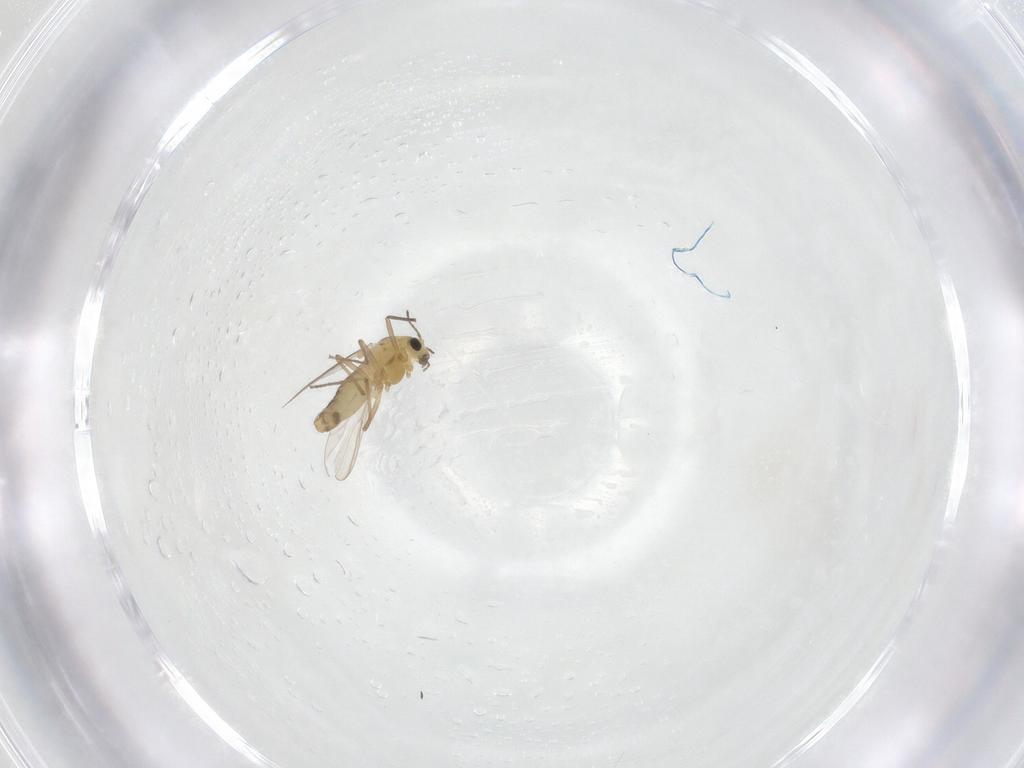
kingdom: Animalia
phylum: Arthropoda
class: Insecta
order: Diptera
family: Chironomidae
